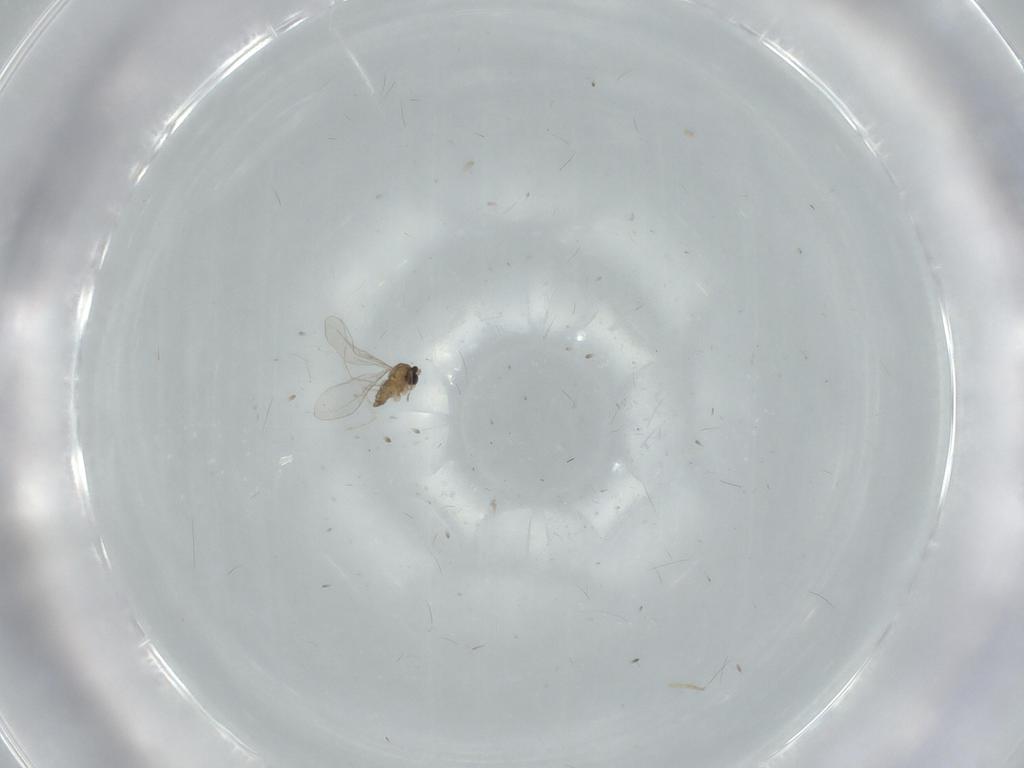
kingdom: Animalia
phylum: Arthropoda
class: Insecta
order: Diptera
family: Cecidomyiidae
